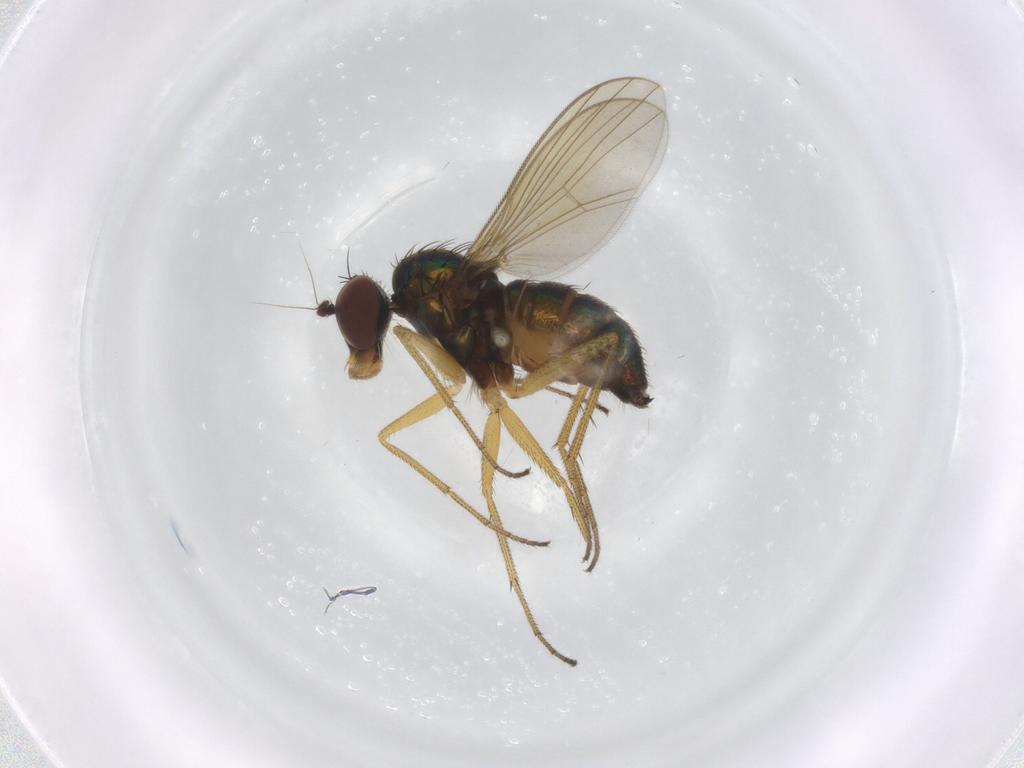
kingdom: Animalia
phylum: Arthropoda
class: Insecta
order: Diptera
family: Dolichopodidae
